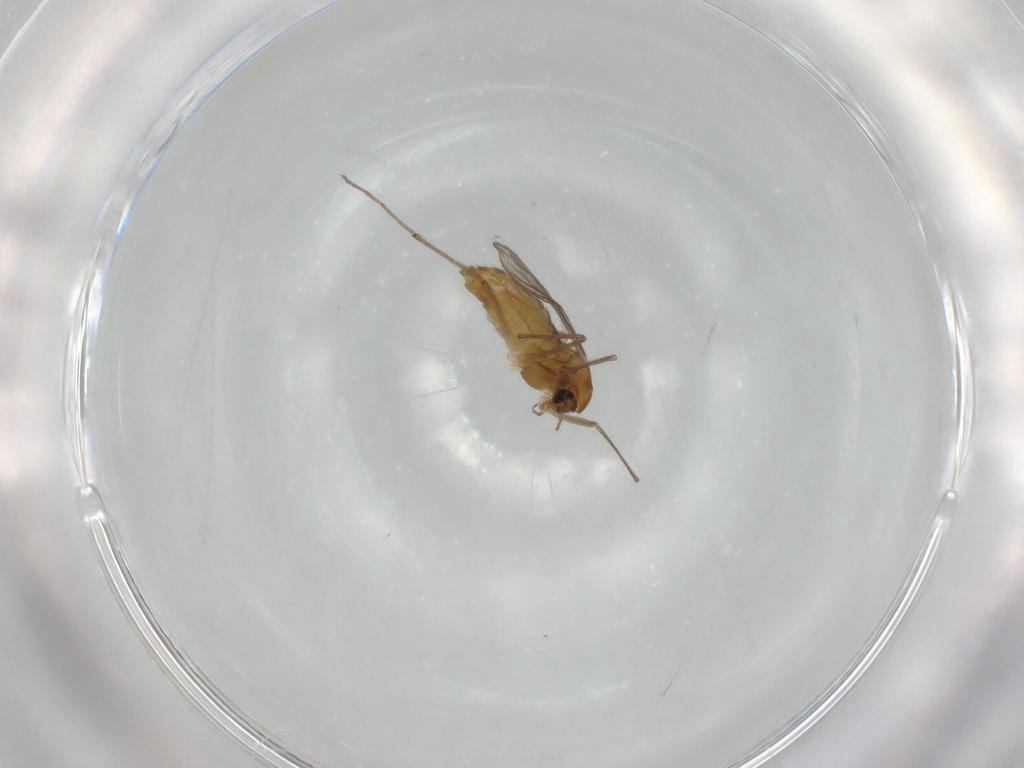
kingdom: Animalia
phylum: Arthropoda
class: Insecta
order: Diptera
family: Chironomidae
